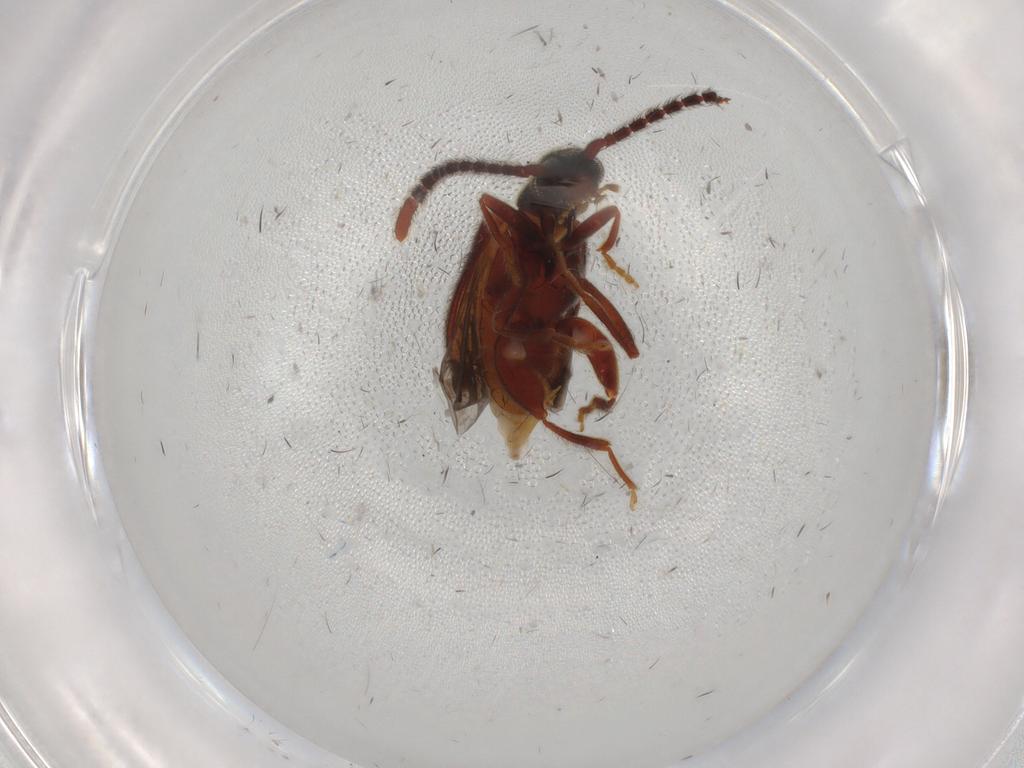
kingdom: Animalia
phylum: Arthropoda
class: Insecta
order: Coleoptera
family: Aderidae
